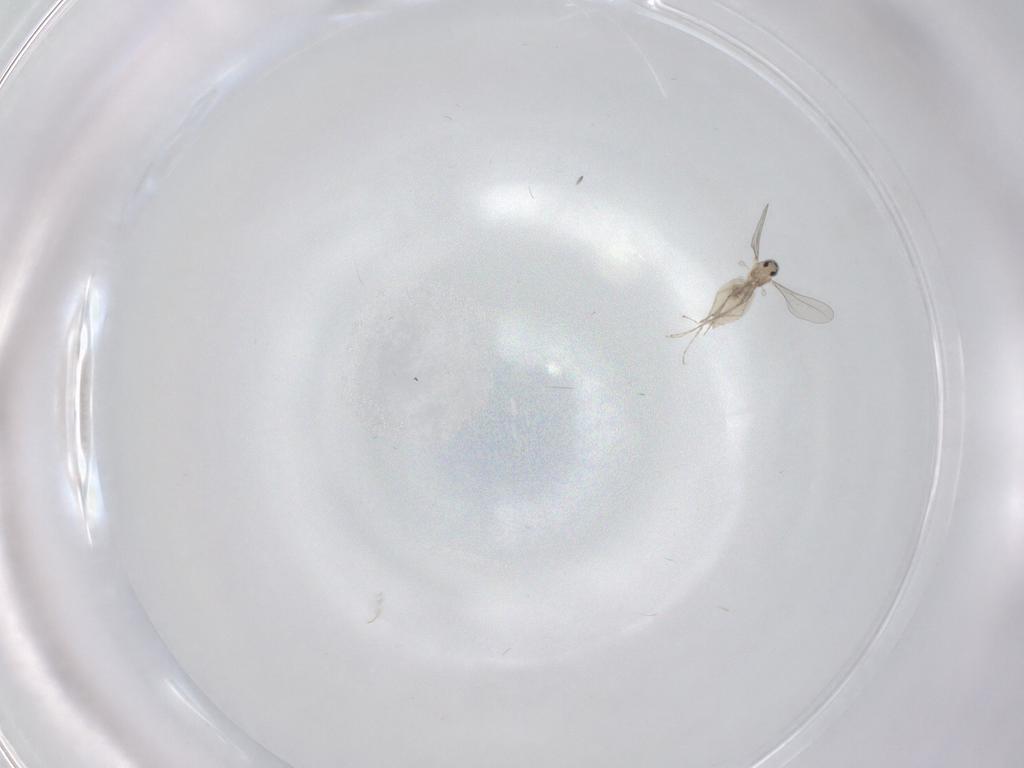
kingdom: Animalia
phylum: Arthropoda
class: Insecta
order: Diptera
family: Cecidomyiidae
